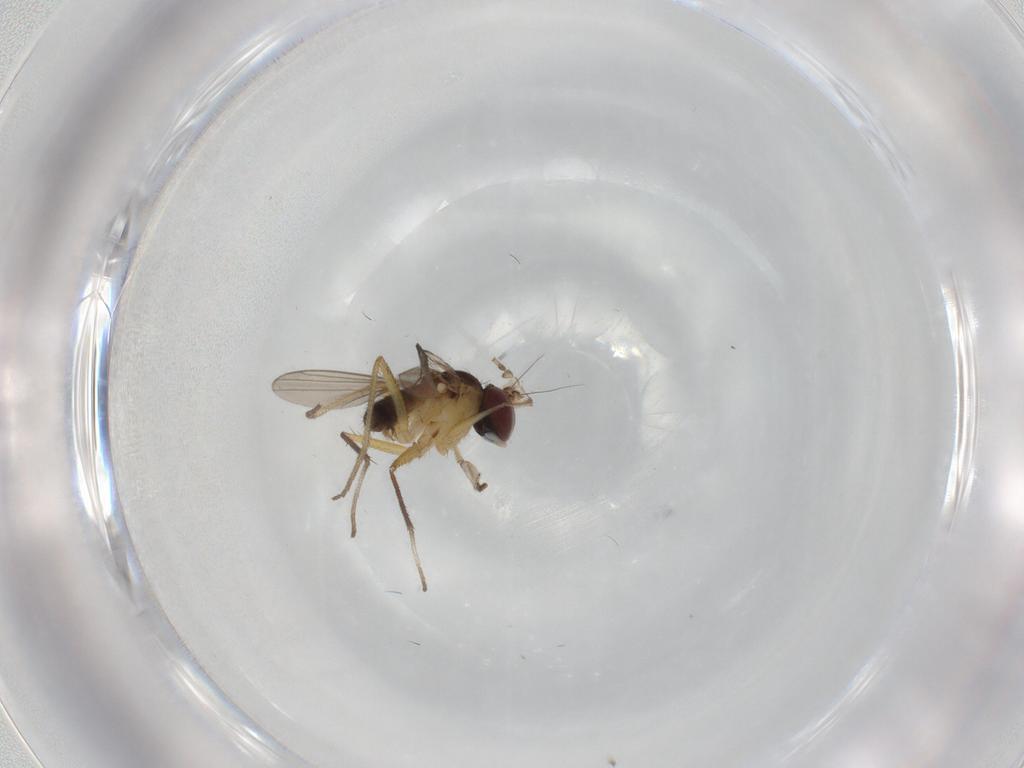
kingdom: Animalia
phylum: Arthropoda
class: Insecta
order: Diptera
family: Dolichopodidae
